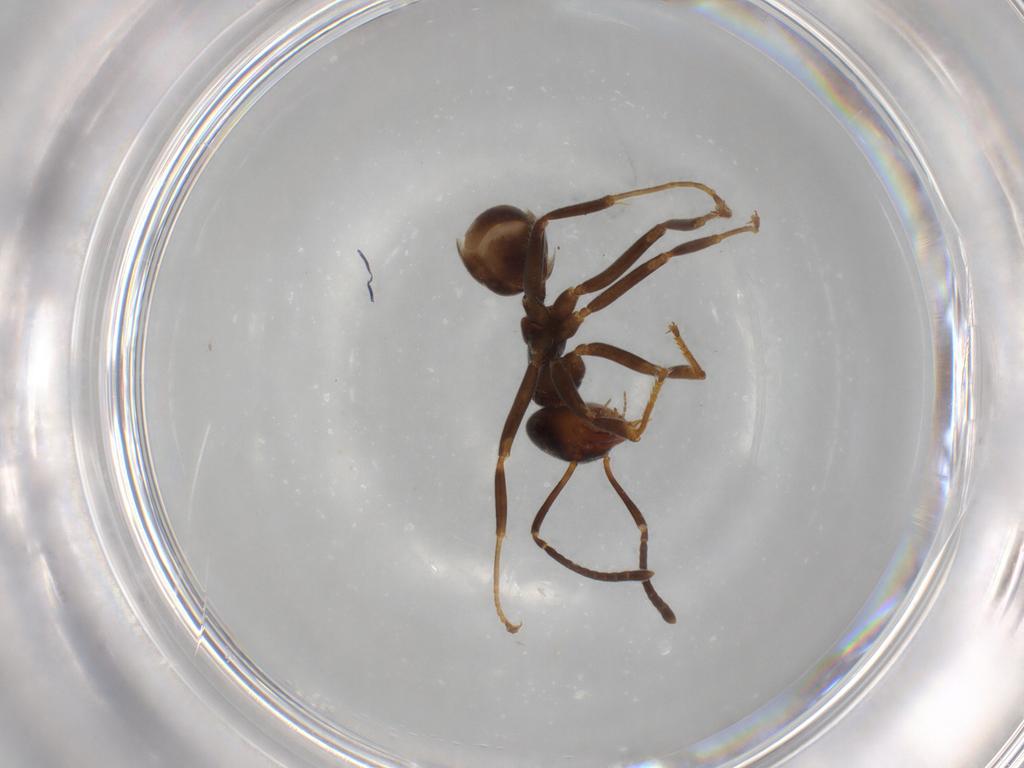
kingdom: Animalia
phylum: Arthropoda
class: Insecta
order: Hymenoptera
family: Formicidae
